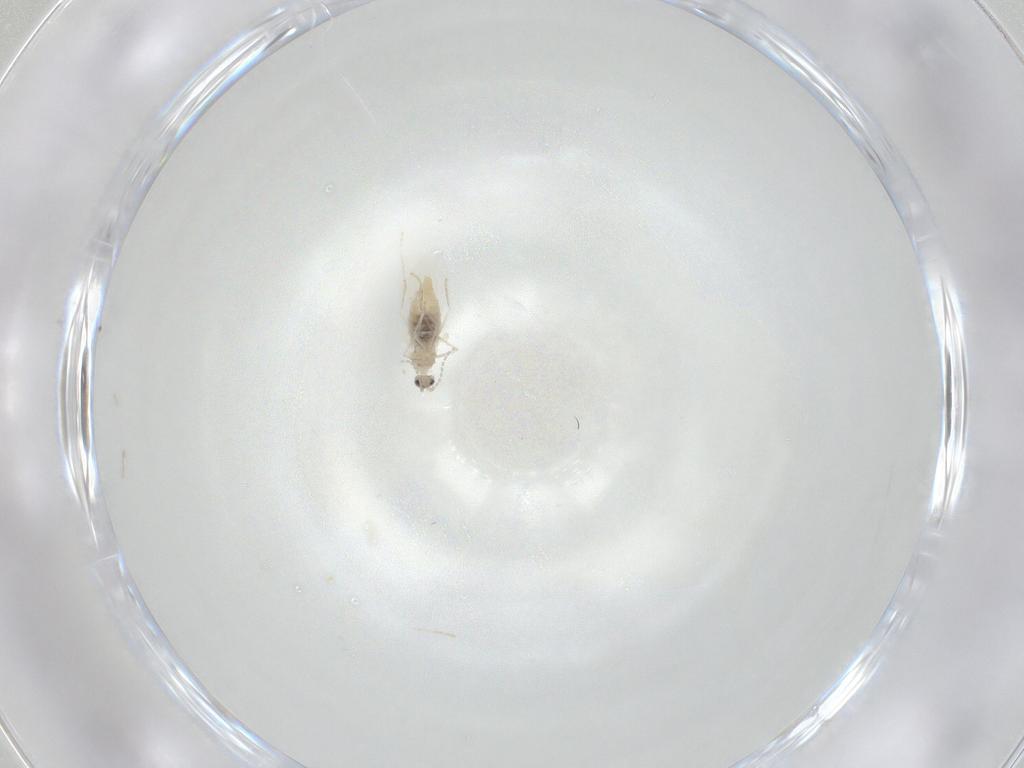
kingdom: Animalia
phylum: Arthropoda
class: Insecta
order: Diptera
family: Cecidomyiidae
